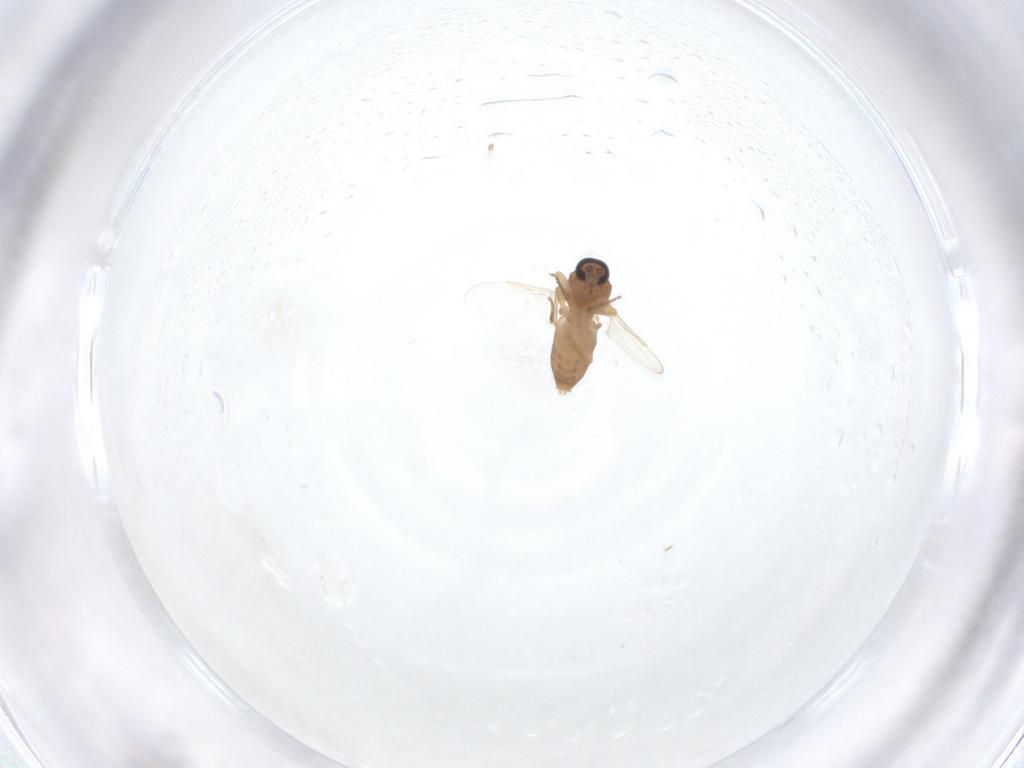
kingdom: Animalia
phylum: Arthropoda
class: Insecta
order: Diptera
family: Ceratopogonidae
